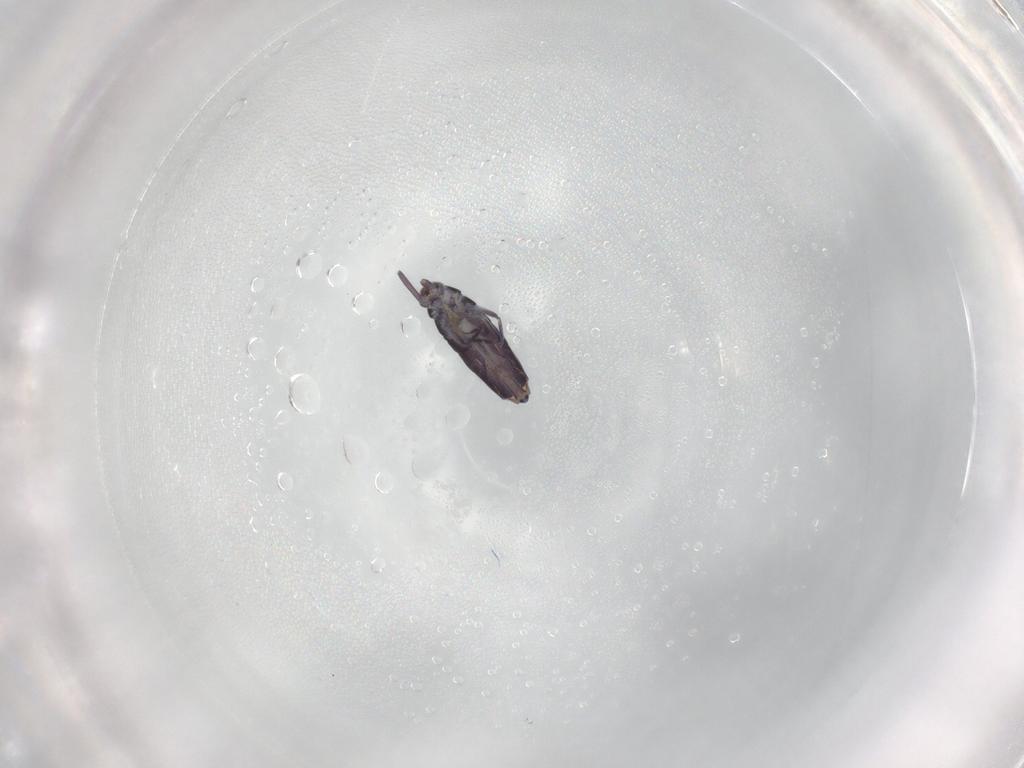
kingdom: Animalia
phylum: Arthropoda
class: Collembola
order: Entomobryomorpha
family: Entomobryidae
